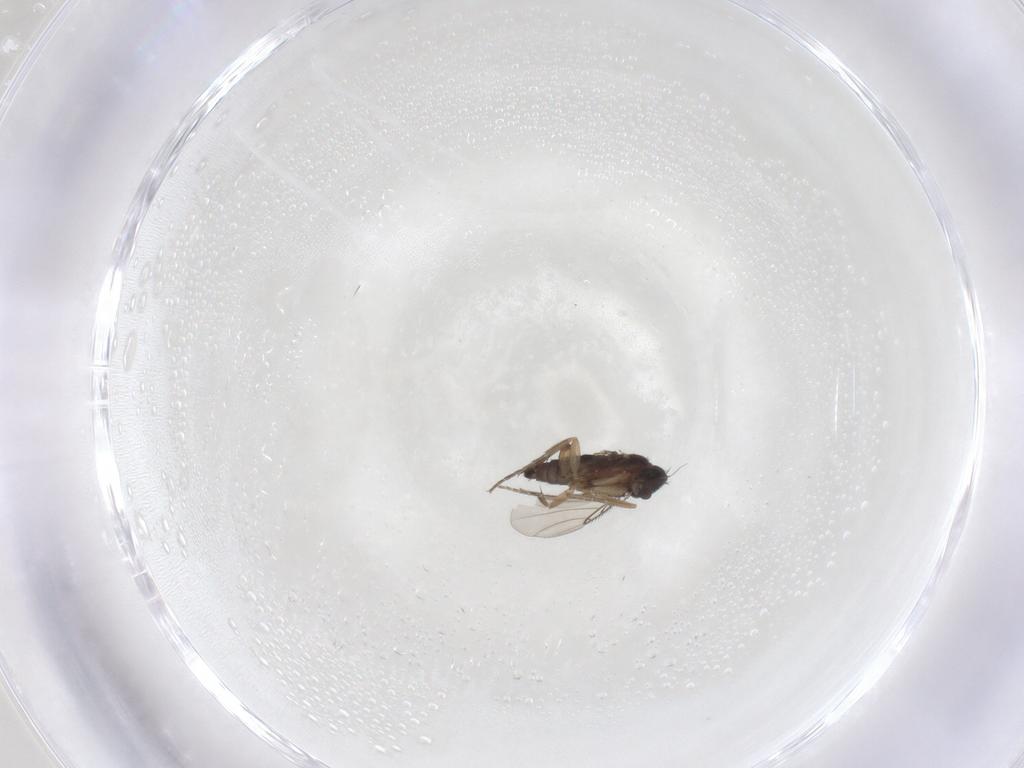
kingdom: Animalia
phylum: Arthropoda
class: Insecta
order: Diptera
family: Phoridae
